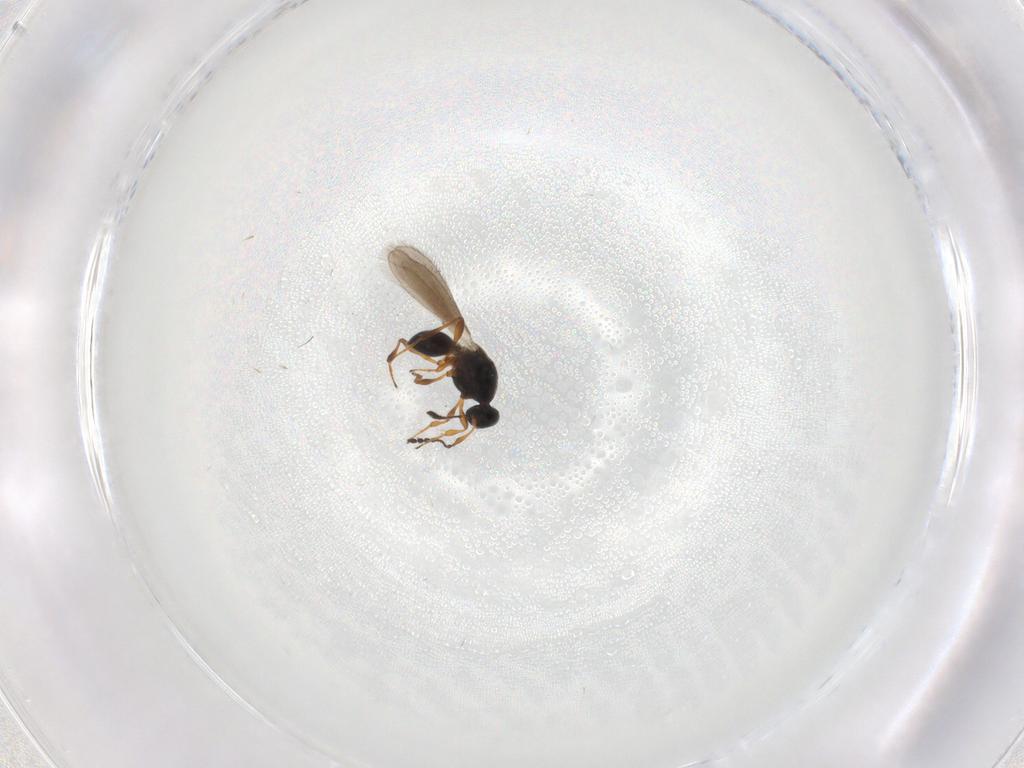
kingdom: Animalia
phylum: Arthropoda
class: Insecta
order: Hymenoptera
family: Platygastridae
